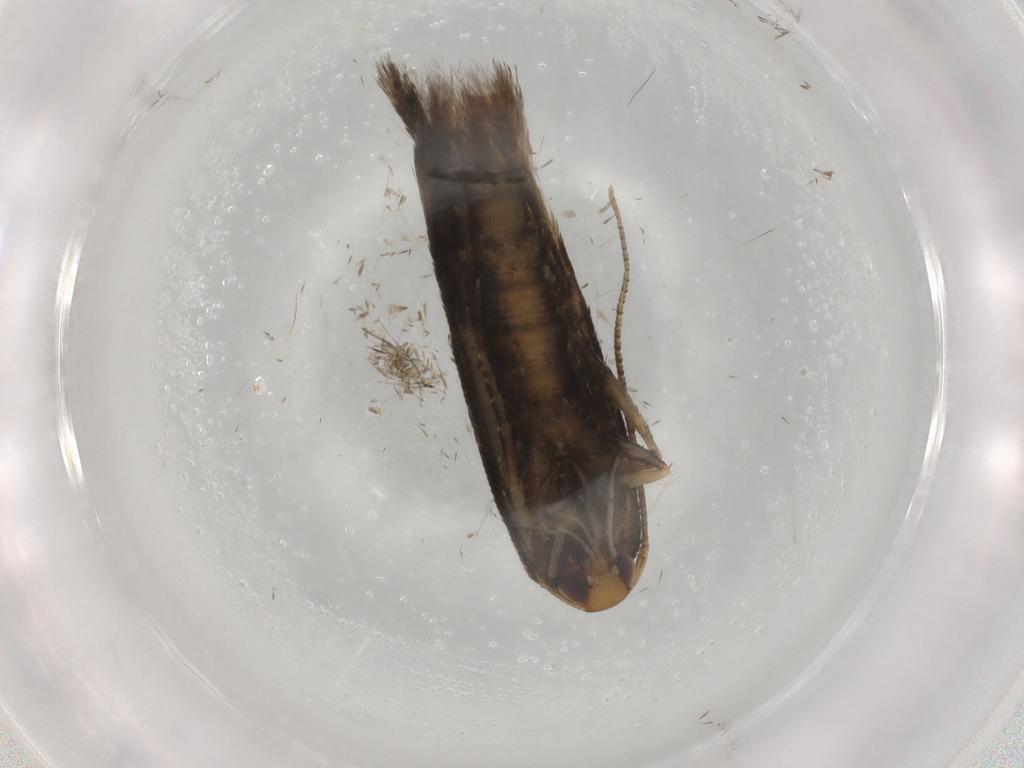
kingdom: Animalia
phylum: Arthropoda
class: Insecta
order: Lepidoptera
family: Cosmopterigidae
